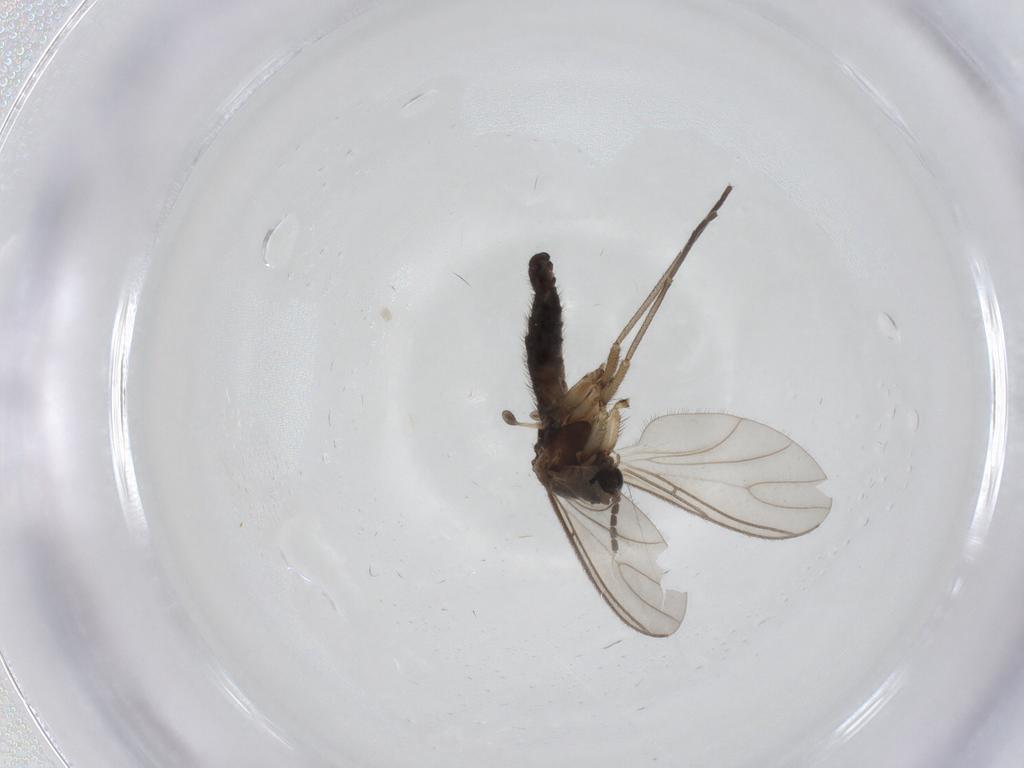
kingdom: Animalia
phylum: Arthropoda
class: Insecta
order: Diptera
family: Sciaridae
